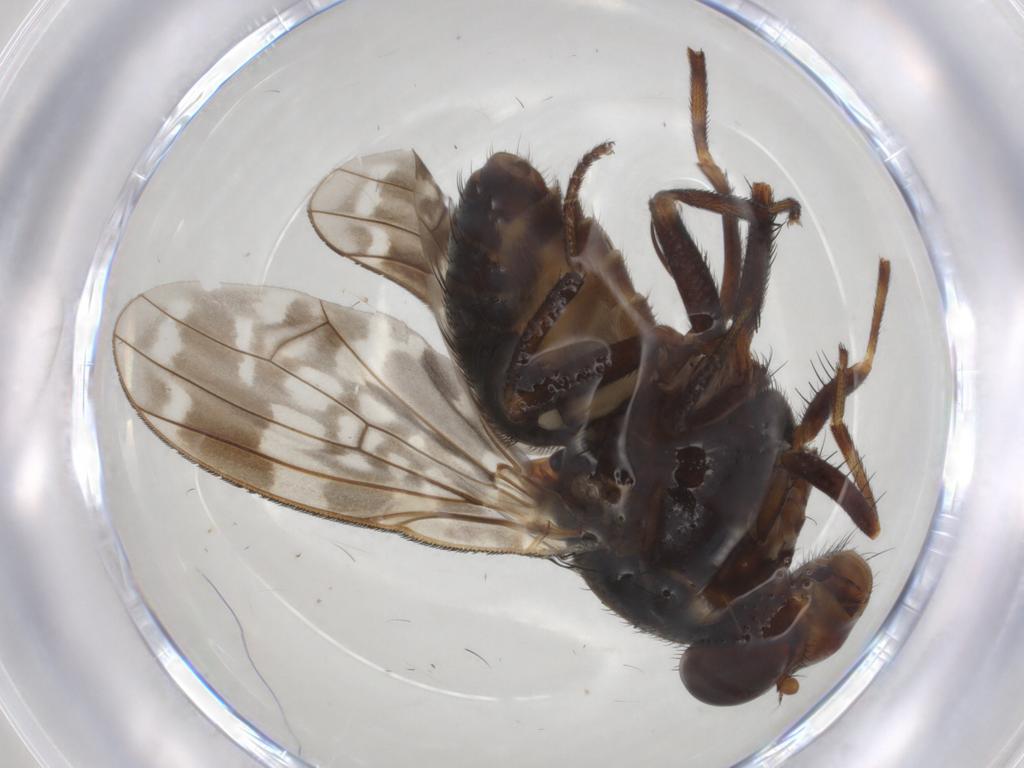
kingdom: Animalia
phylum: Arthropoda
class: Insecta
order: Diptera
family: Lauxaniidae
